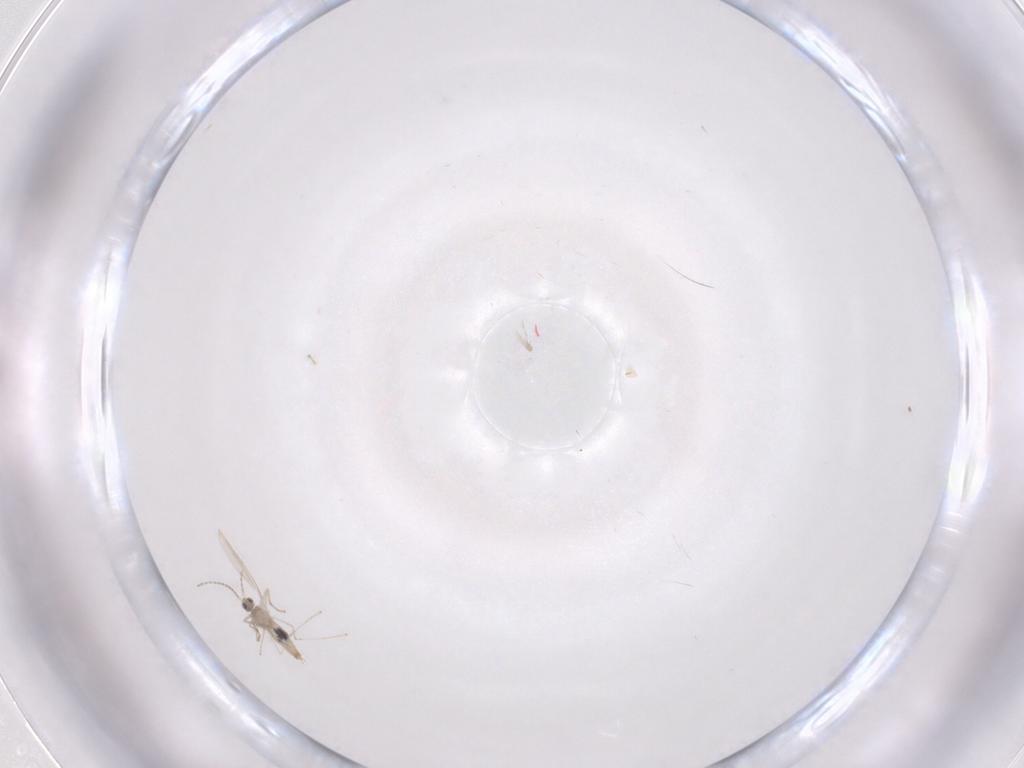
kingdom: Animalia
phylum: Arthropoda
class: Insecta
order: Diptera
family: Cecidomyiidae
